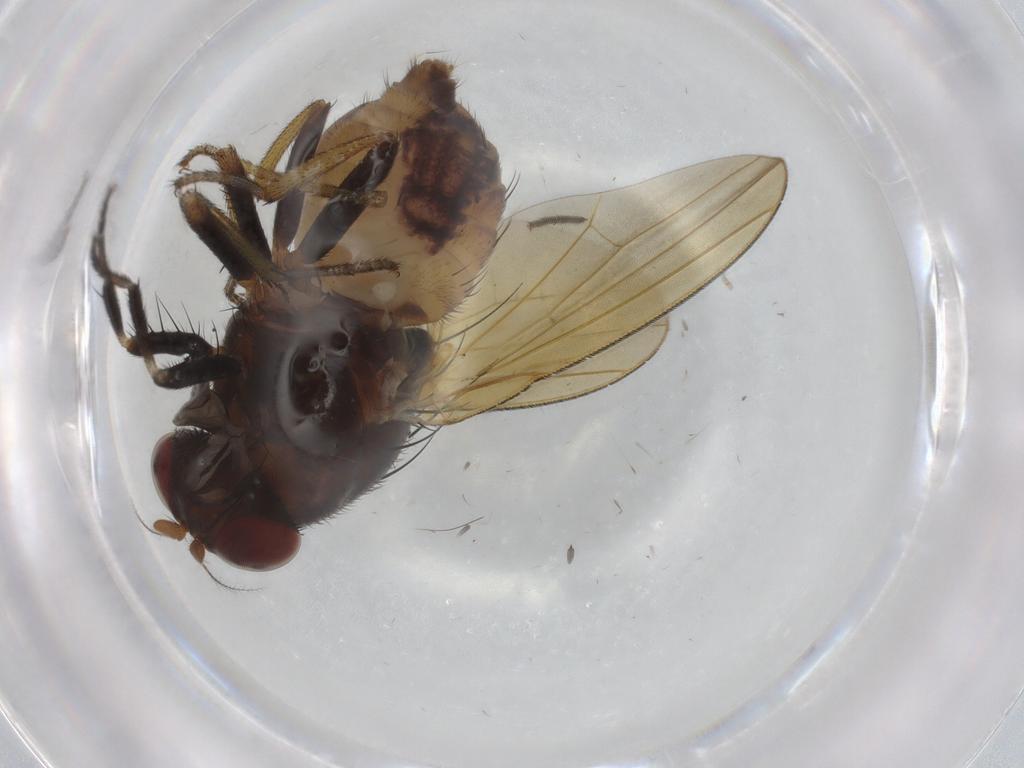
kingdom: Animalia
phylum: Arthropoda
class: Insecta
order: Diptera
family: Lauxaniidae
